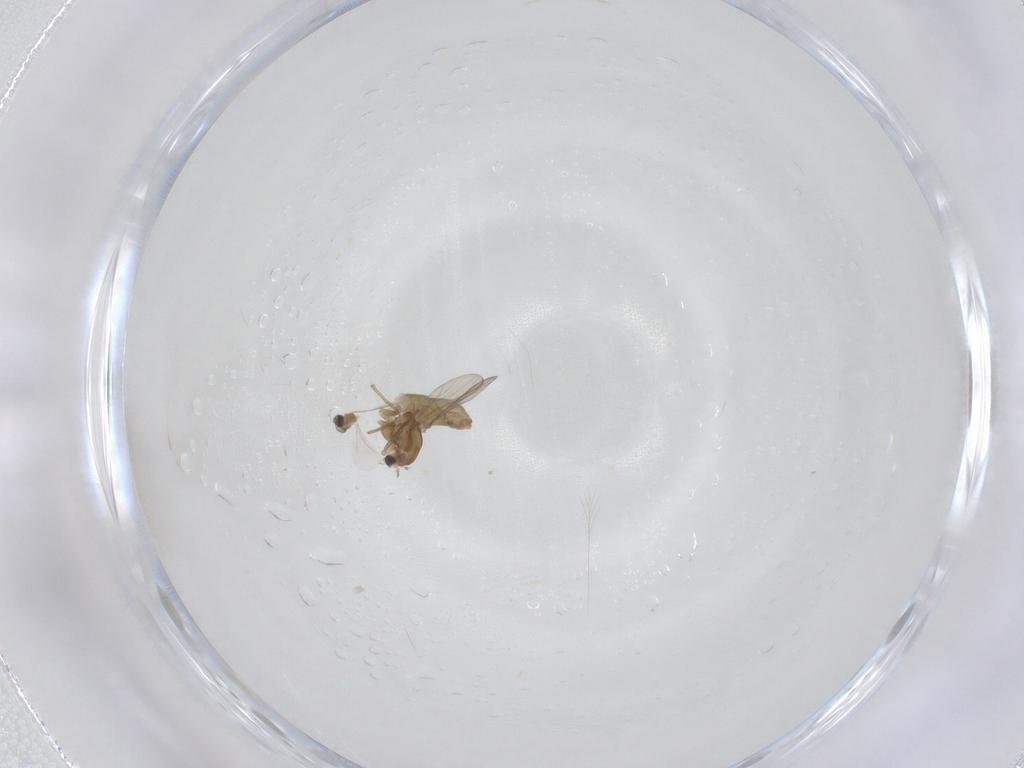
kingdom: Animalia
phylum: Arthropoda
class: Insecta
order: Diptera
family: Chironomidae
